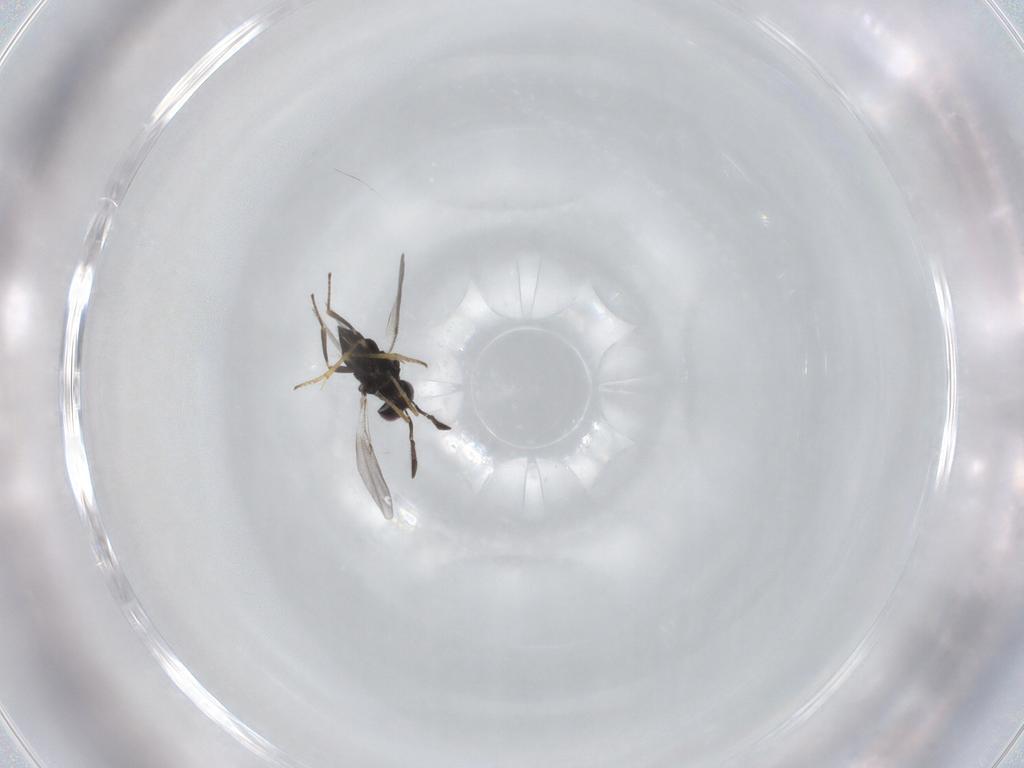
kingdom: Animalia
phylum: Arthropoda
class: Insecta
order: Hymenoptera
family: Encyrtidae
